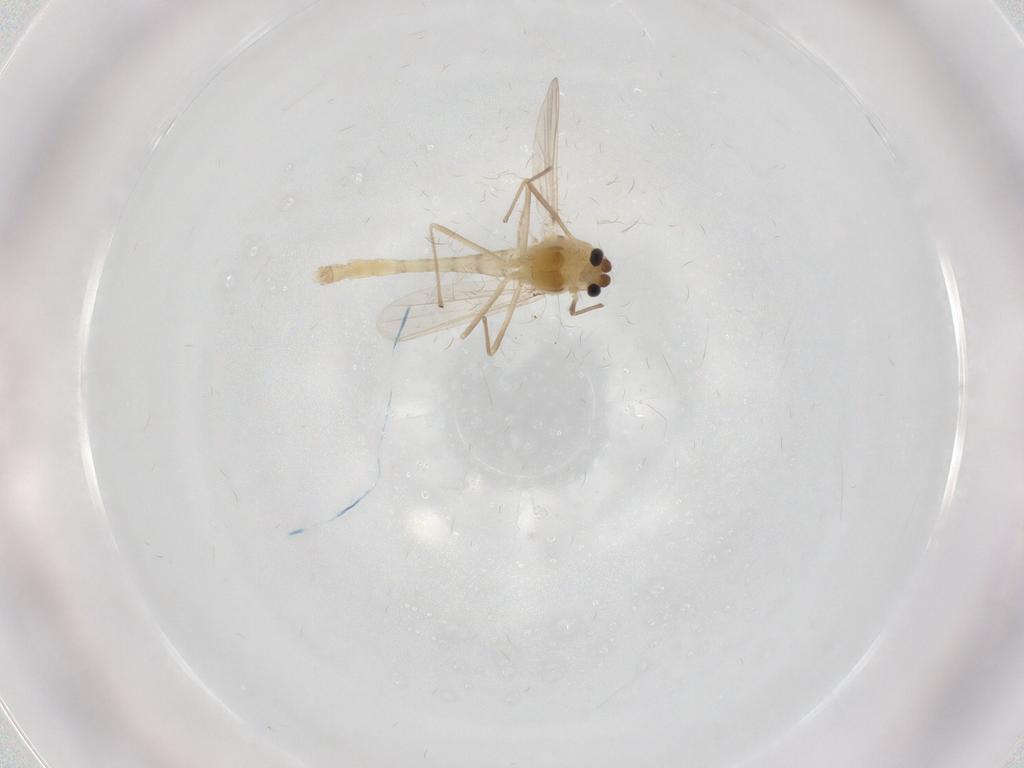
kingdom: Animalia
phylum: Arthropoda
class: Insecta
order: Diptera
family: Chironomidae
